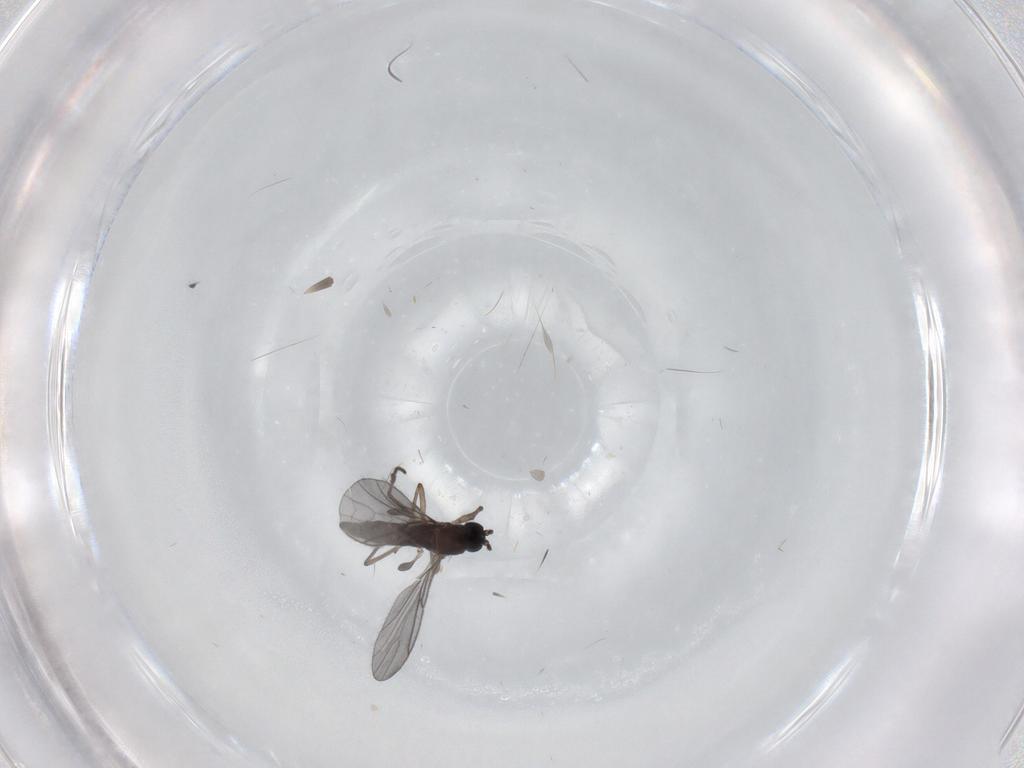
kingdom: Animalia
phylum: Arthropoda
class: Insecta
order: Diptera
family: Sciaridae
